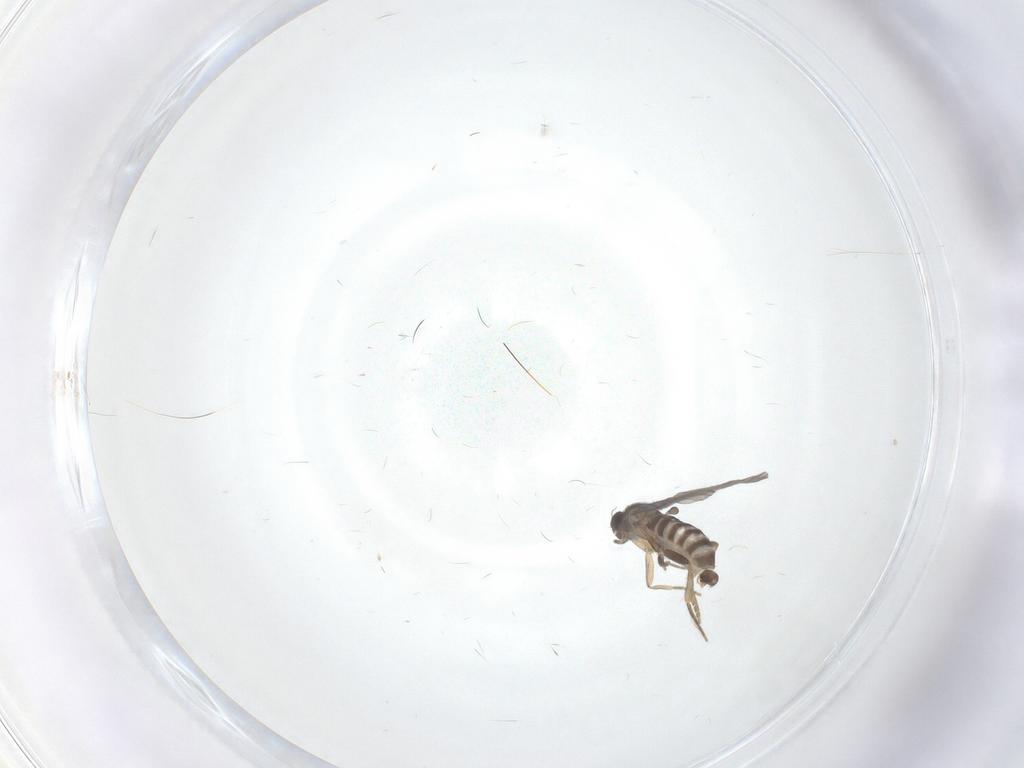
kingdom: Animalia
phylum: Arthropoda
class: Insecta
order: Diptera
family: Cecidomyiidae
